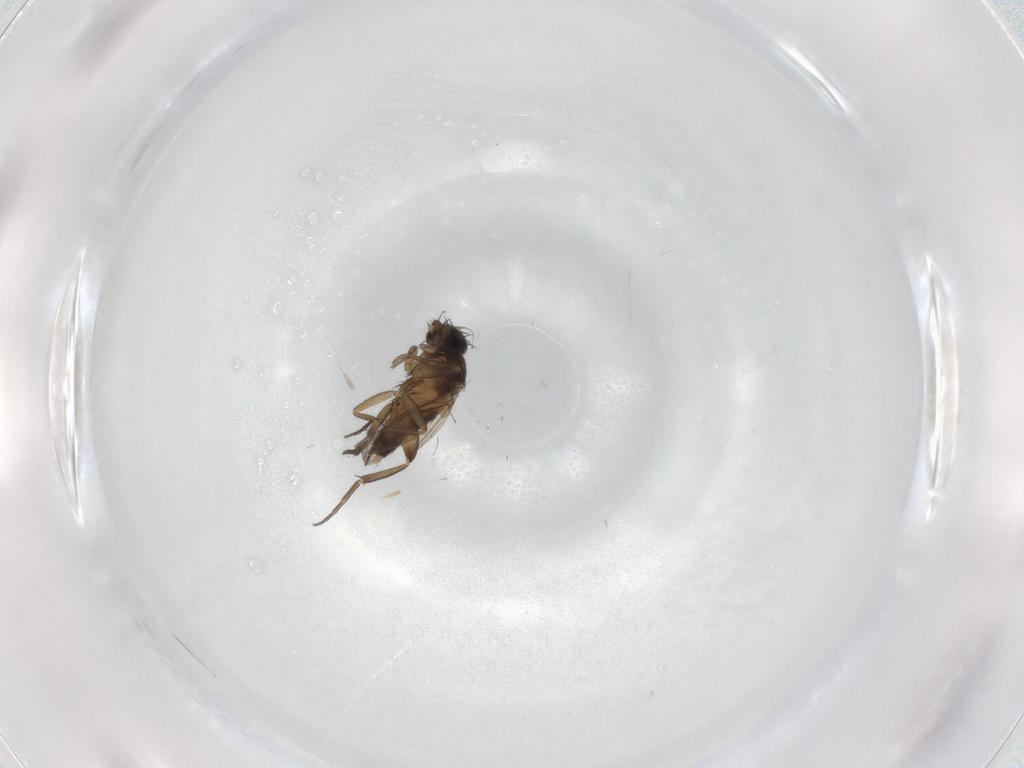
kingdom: Animalia
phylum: Arthropoda
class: Insecta
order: Diptera
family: Phoridae
